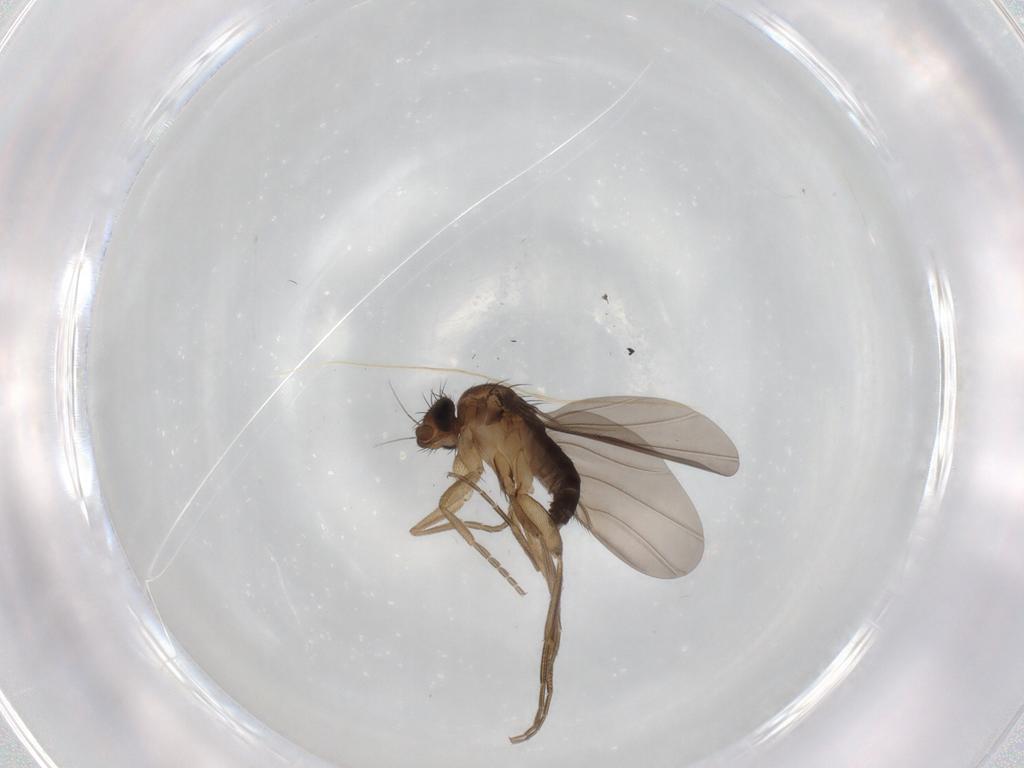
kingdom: Animalia
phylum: Arthropoda
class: Insecta
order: Diptera
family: Phoridae
